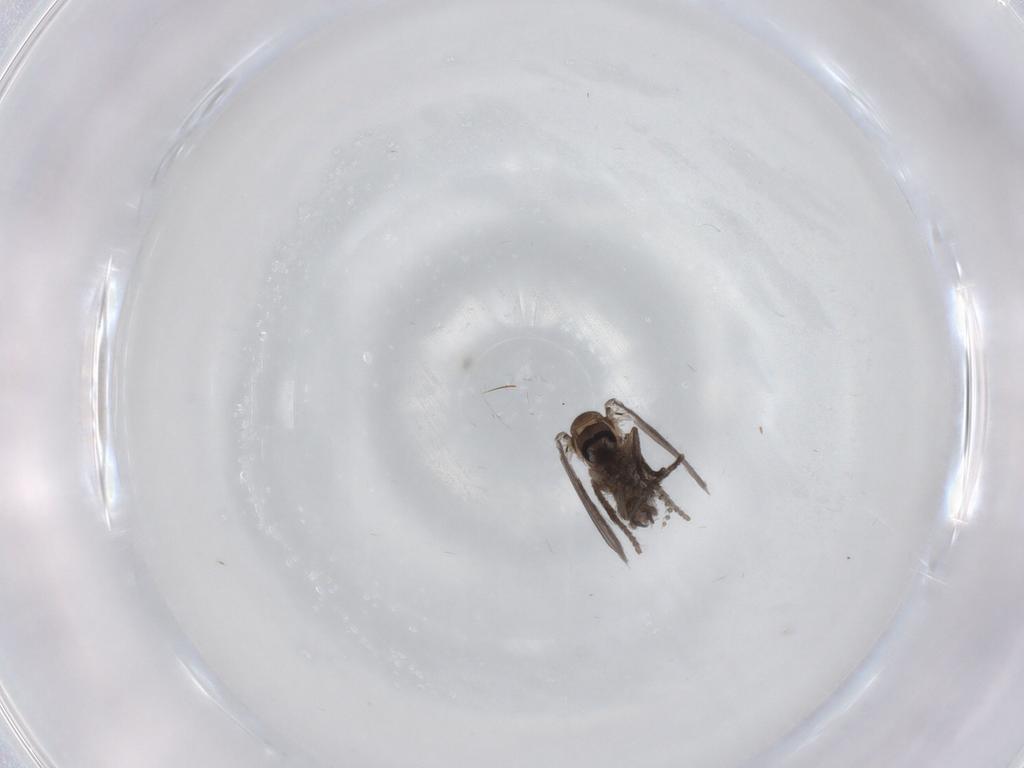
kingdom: Animalia
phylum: Arthropoda
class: Insecta
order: Diptera
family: Psychodidae
